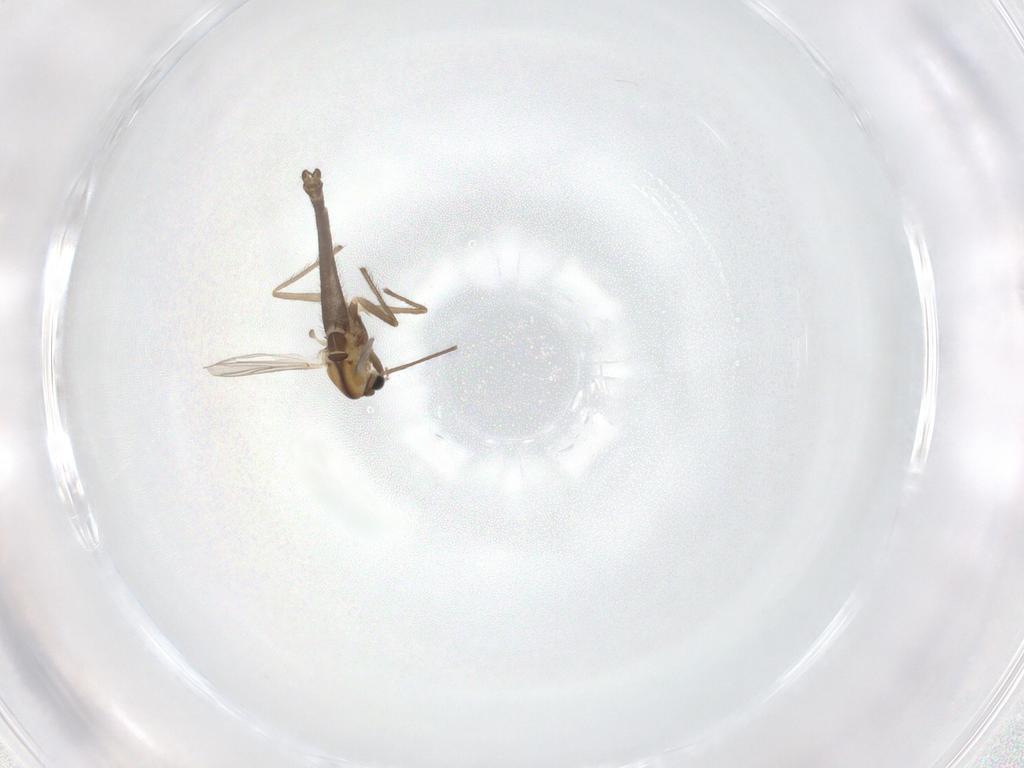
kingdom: Animalia
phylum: Arthropoda
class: Insecta
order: Diptera
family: Chironomidae
